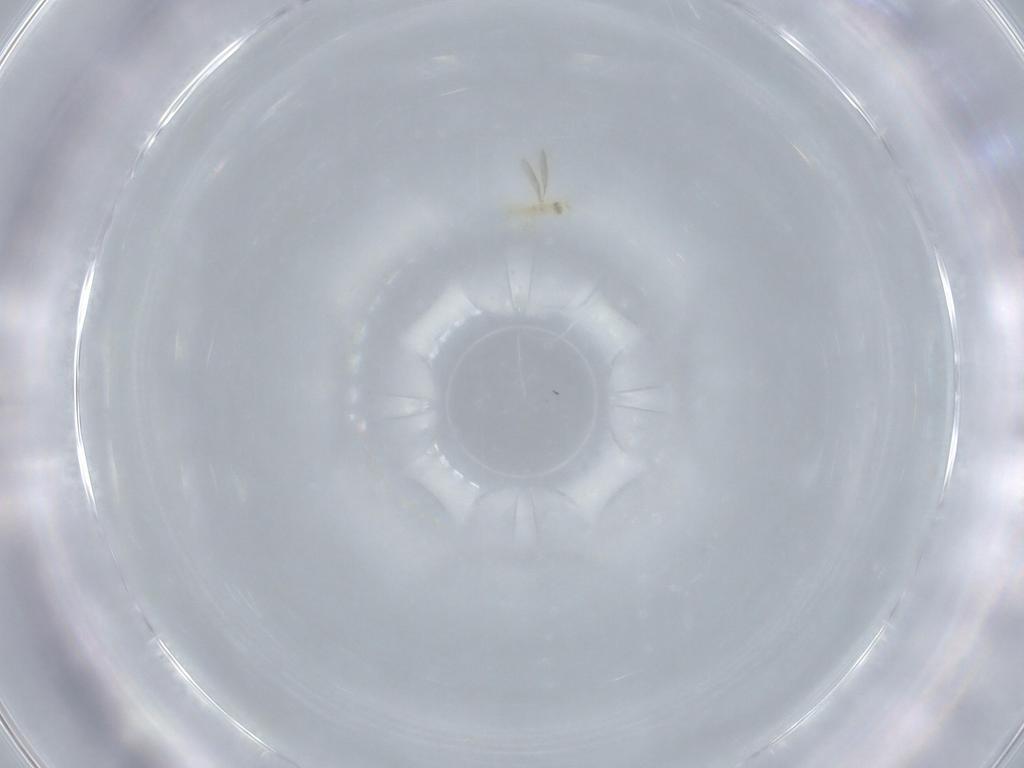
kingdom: Animalia
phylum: Arthropoda
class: Insecta
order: Hymenoptera
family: Aphelinidae
